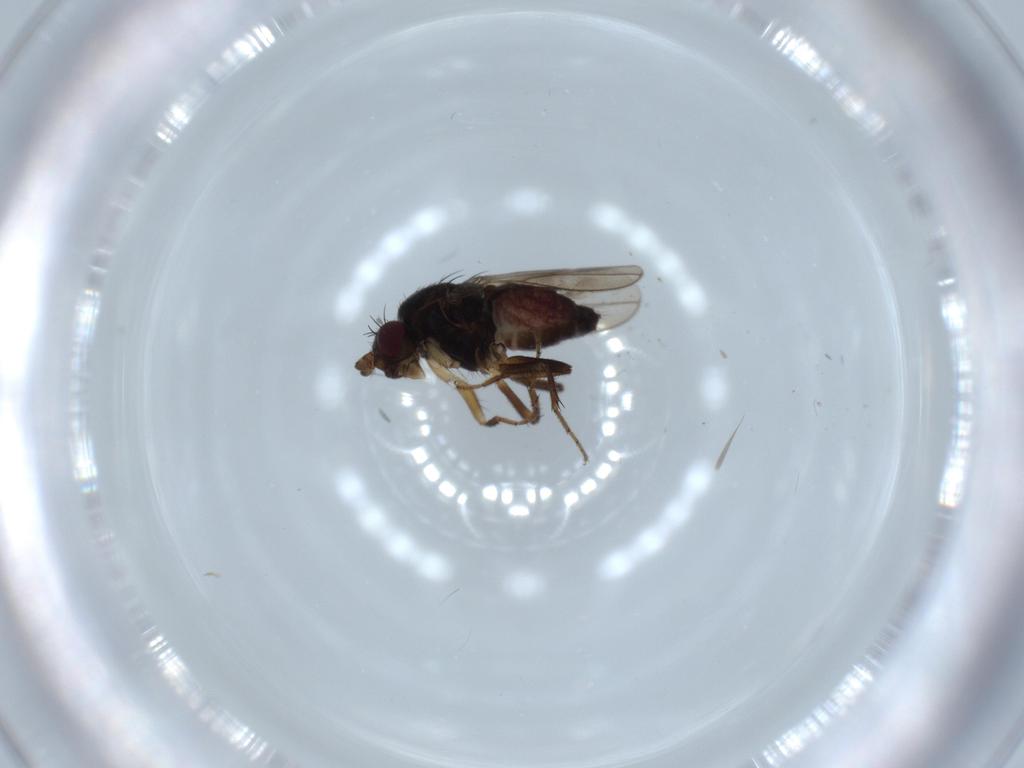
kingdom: Animalia
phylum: Arthropoda
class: Insecta
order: Diptera
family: Sphaeroceridae
